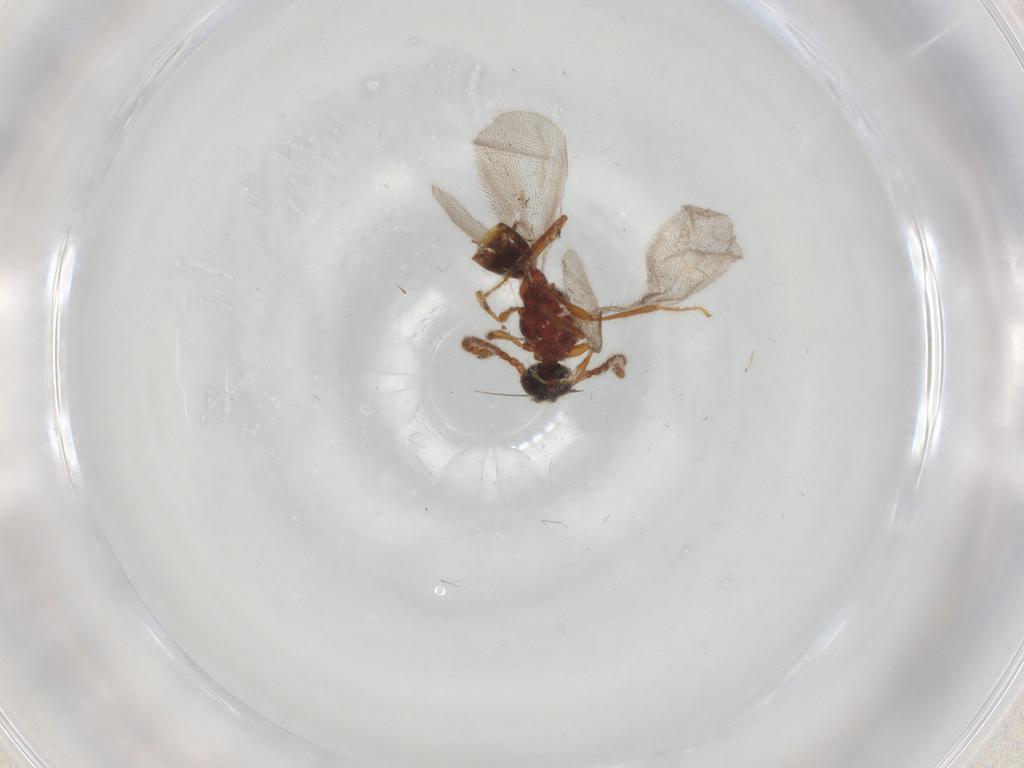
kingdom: Animalia
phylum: Arthropoda
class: Insecta
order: Hymenoptera
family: Diapriidae
